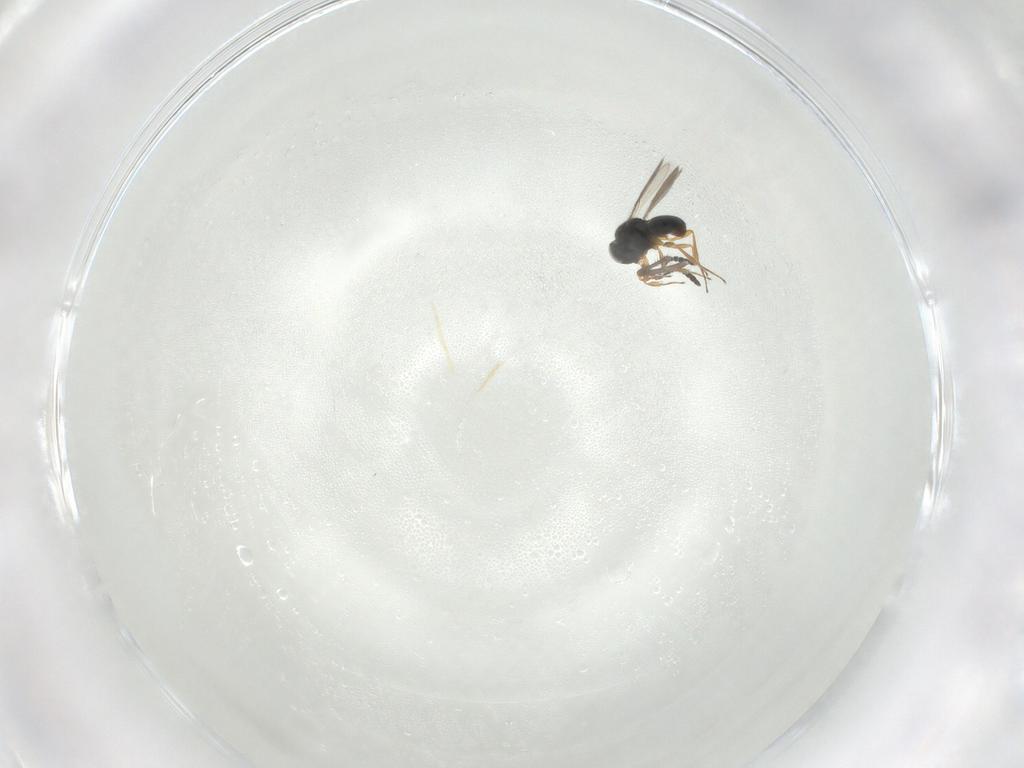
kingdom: Animalia
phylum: Arthropoda
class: Insecta
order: Hymenoptera
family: Scelionidae
